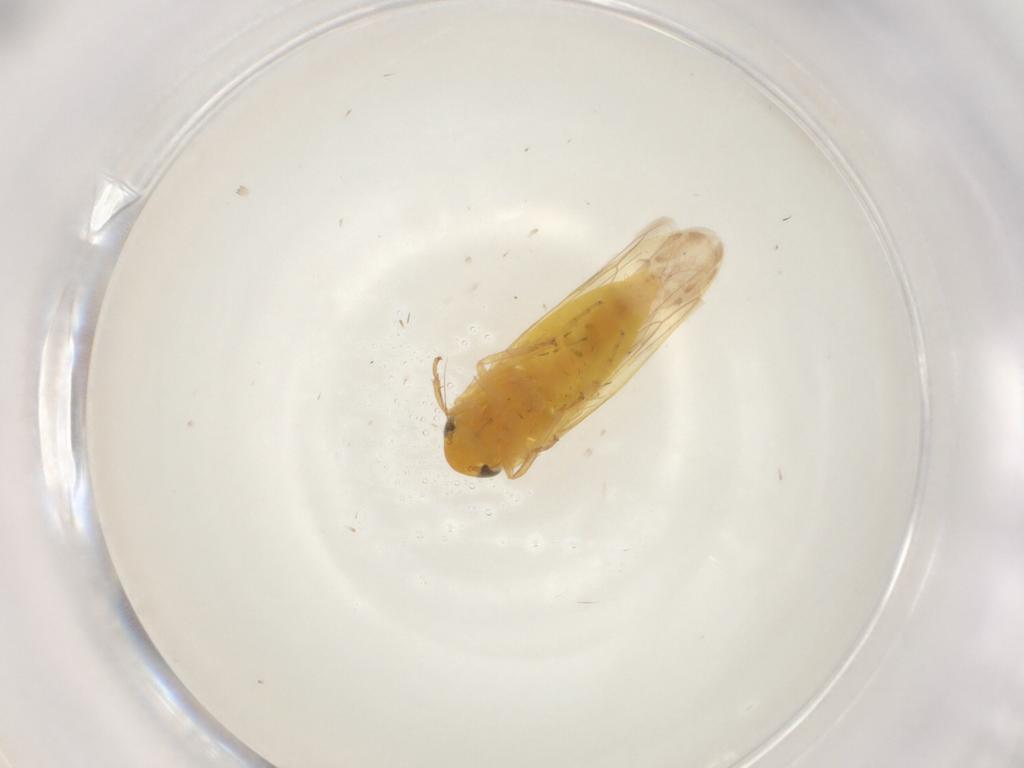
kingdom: Animalia
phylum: Arthropoda
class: Insecta
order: Hemiptera
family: Cicadellidae
